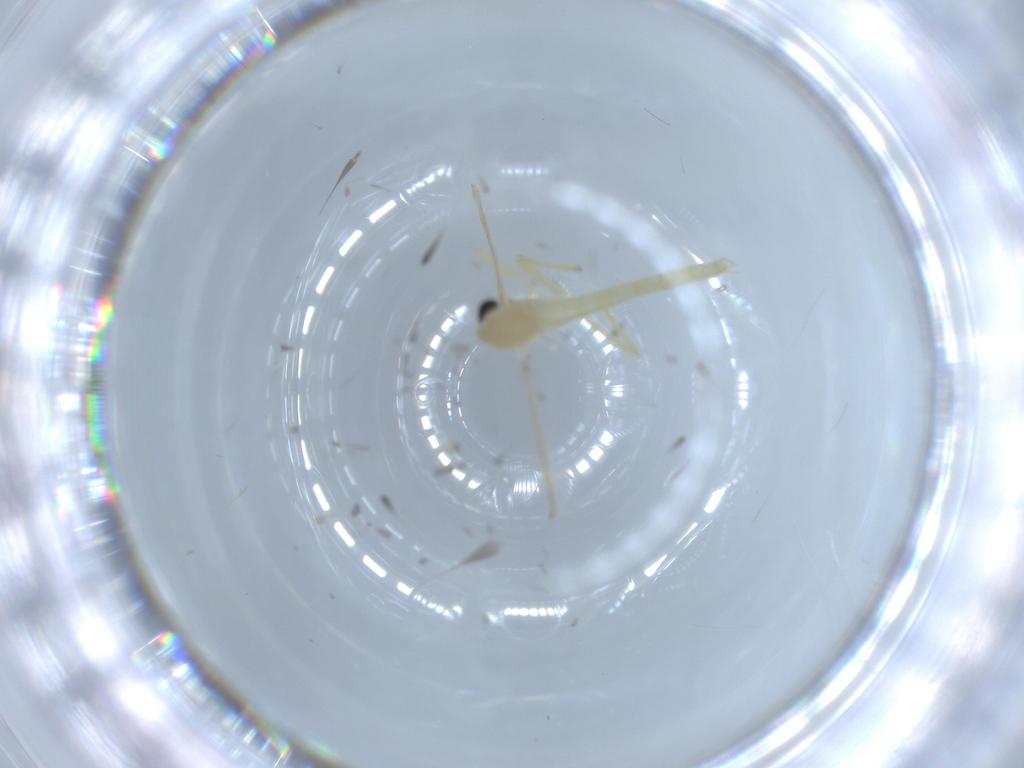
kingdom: Animalia
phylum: Arthropoda
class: Insecta
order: Diptera
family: Chironomidae
